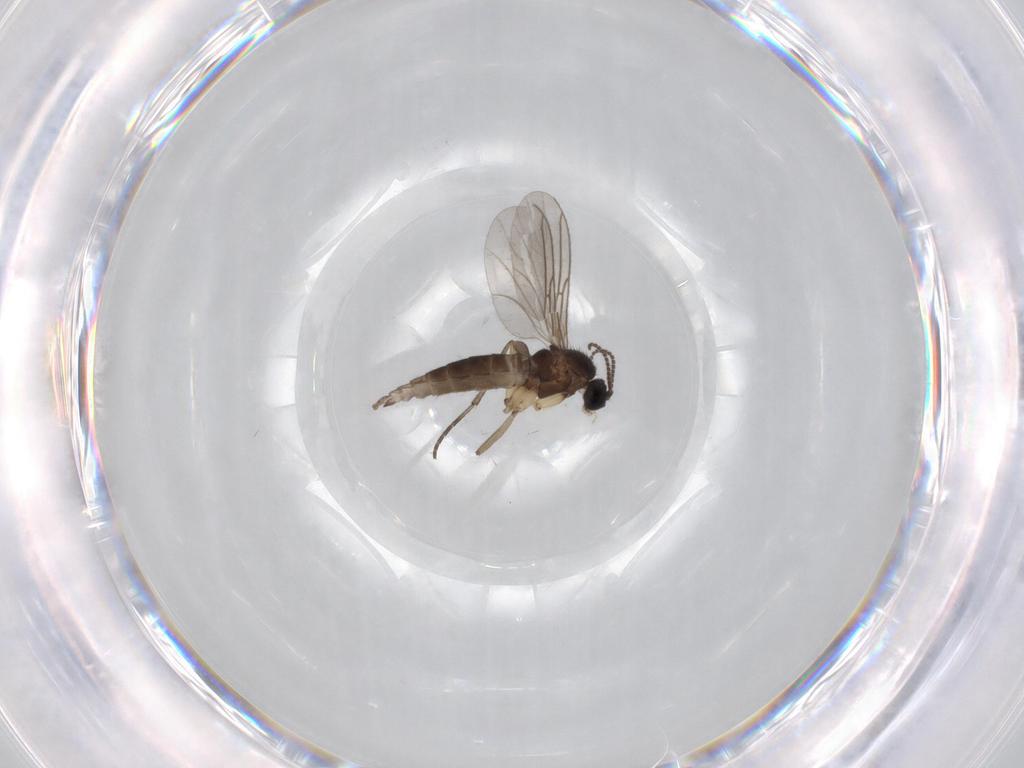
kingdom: Animalia
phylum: Arthropoda
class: Insecta
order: Diptera
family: Sciaridae
